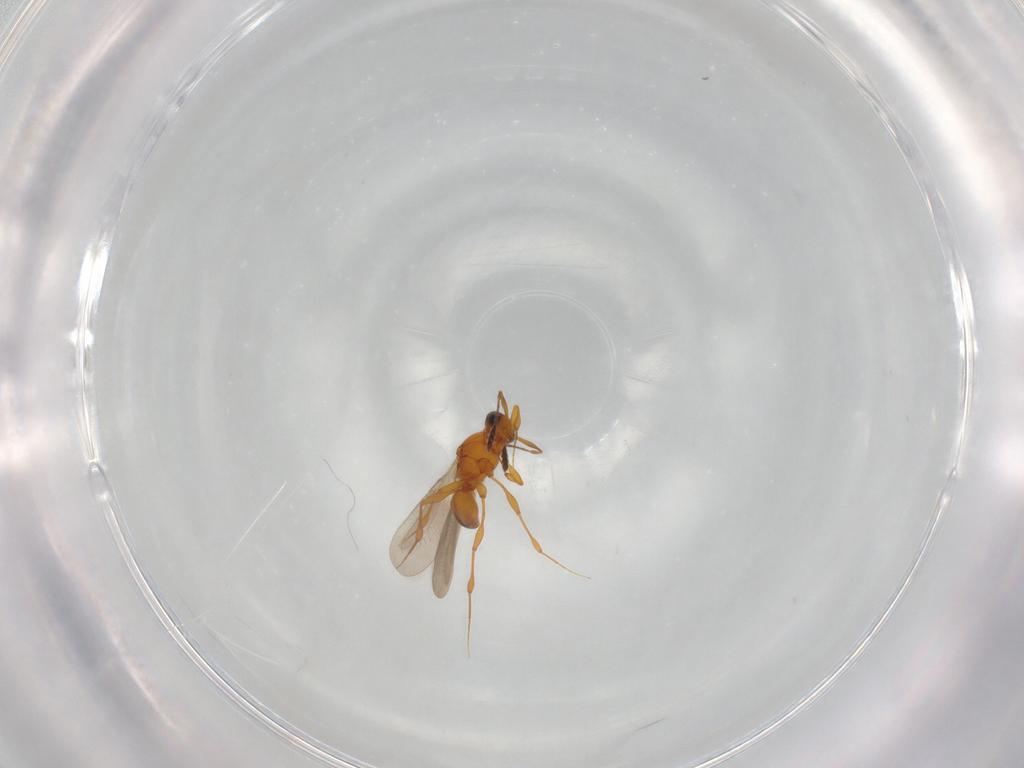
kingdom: Animalia
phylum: Arthropoda
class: Insecta
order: Hymenoptera
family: Platygastridae
